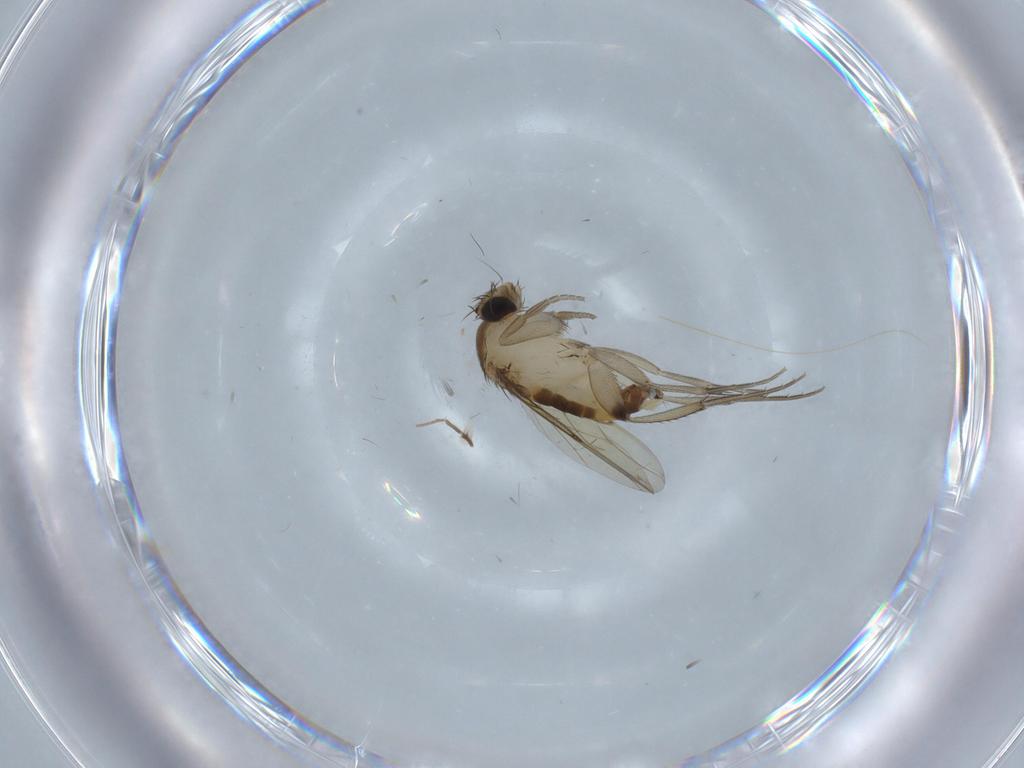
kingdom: Animalia
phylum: Arthropoda
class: Insecta
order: Diptera
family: Phoridae
